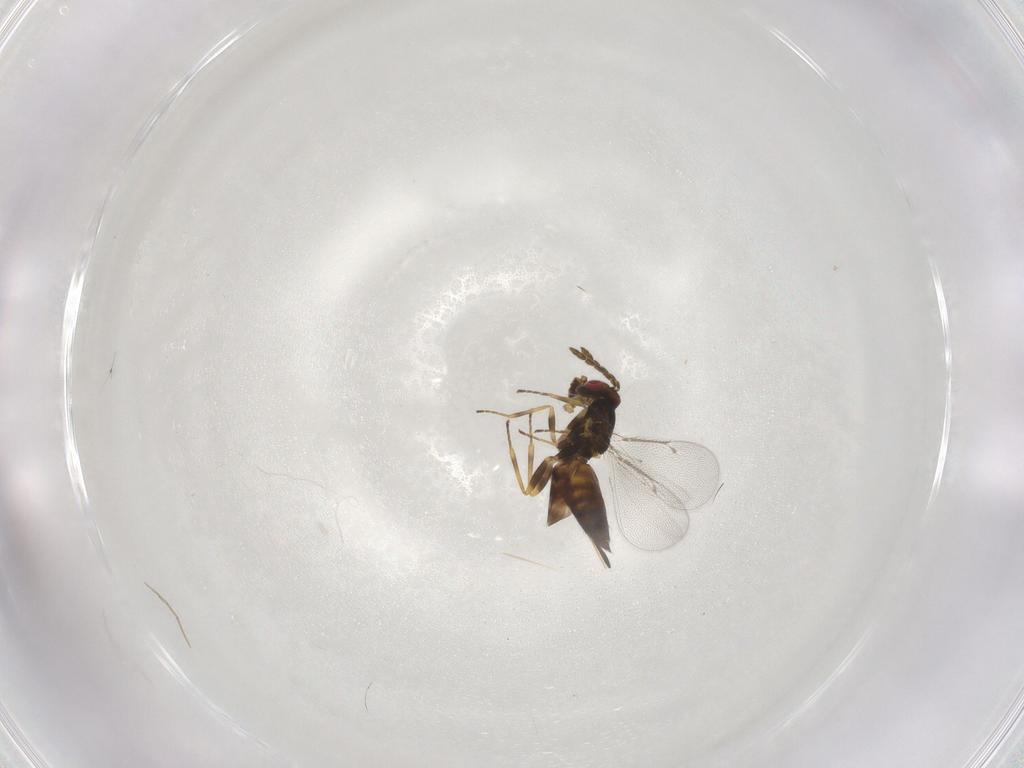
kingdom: Animalia
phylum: Arthropoda
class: Insecta
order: Hymenoptera
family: Eulophidae
